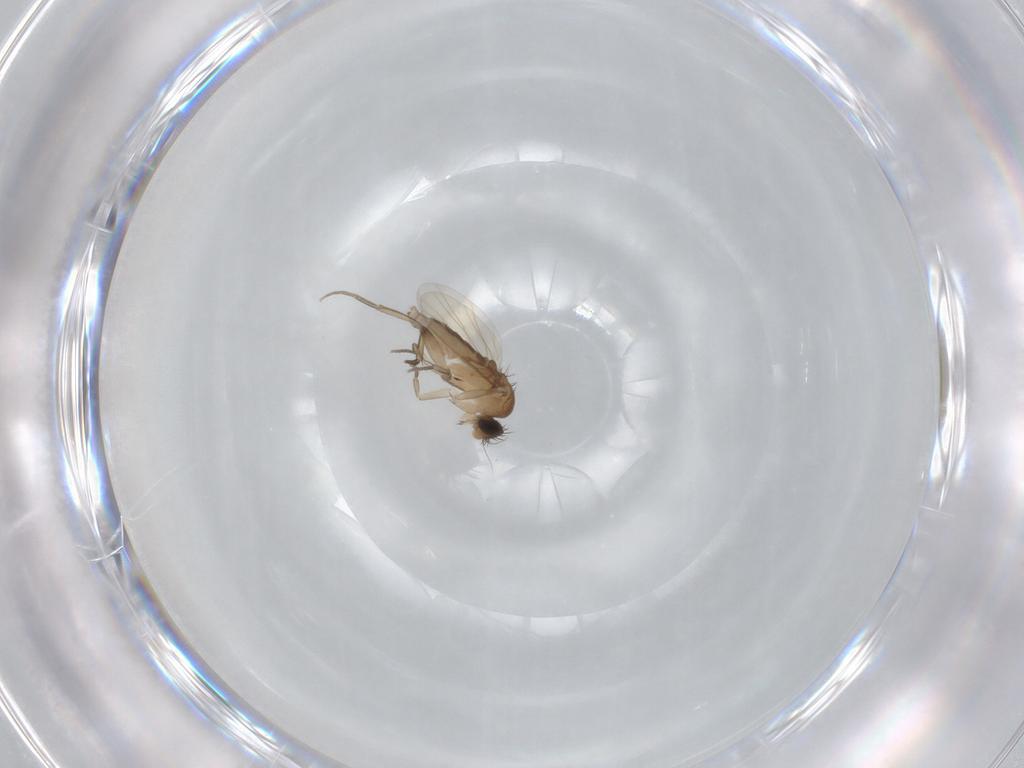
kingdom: Animalia
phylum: Arthropoda
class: Insecta
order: Diptera
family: Phoridae
